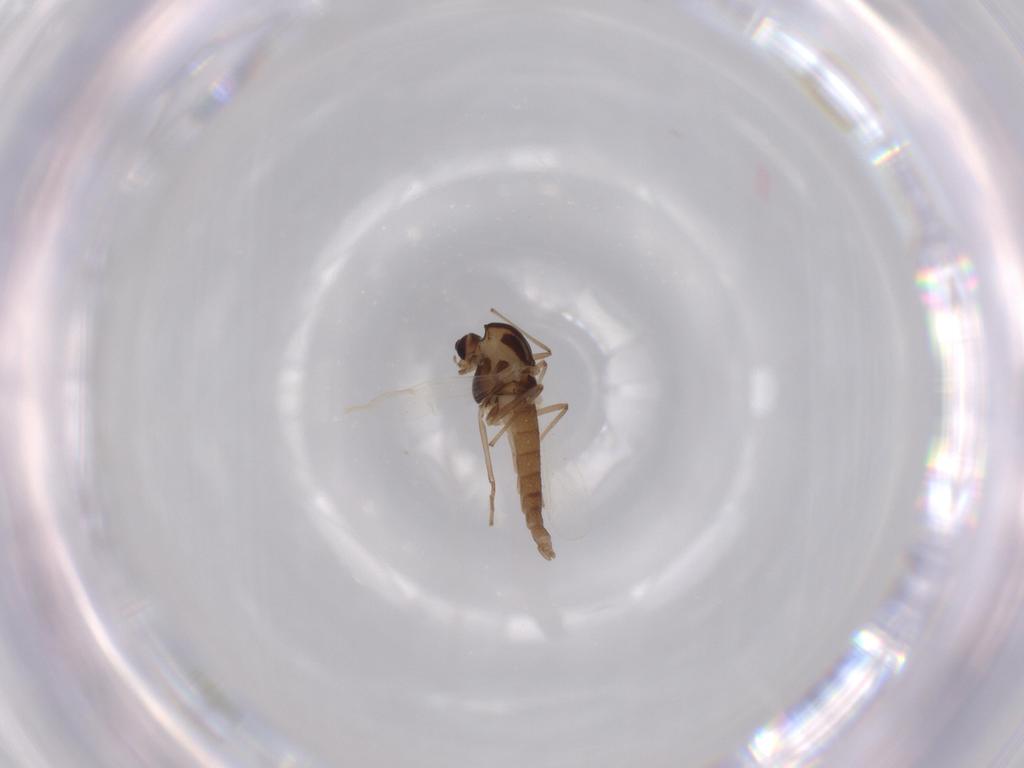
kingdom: Animalia
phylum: Arthropoda
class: Insecta
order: Diptera
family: Chironomidae
